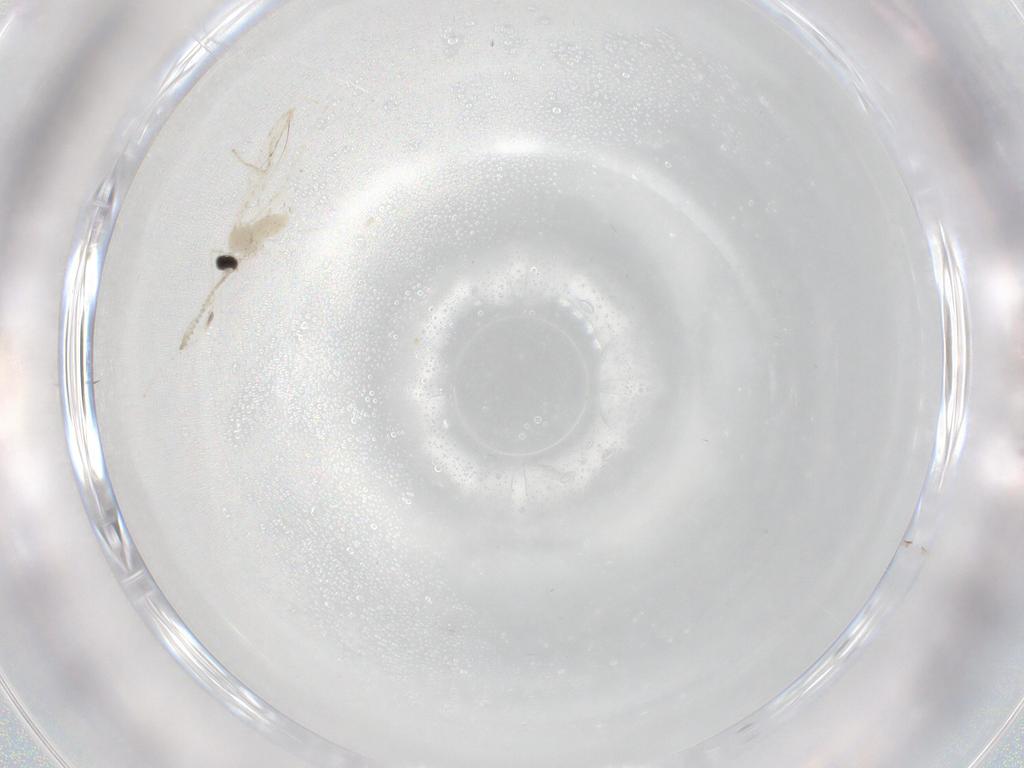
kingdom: Animalia
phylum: Arthropoda
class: Insecta
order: Diptera
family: Cecidomyiidae
